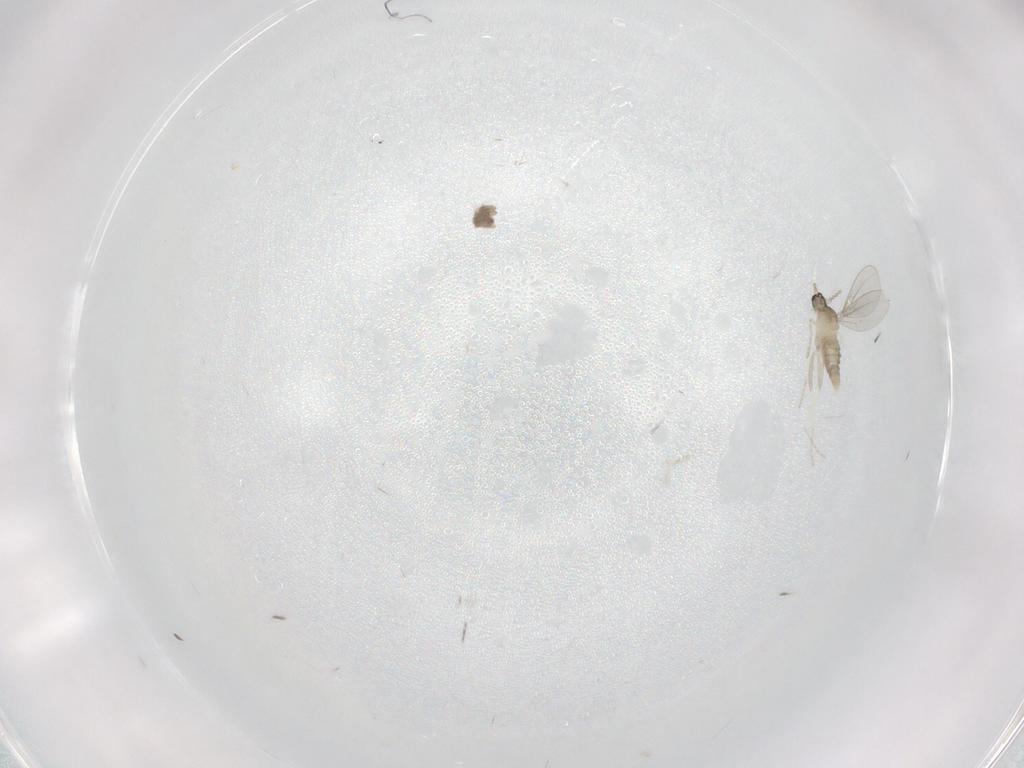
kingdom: Animalia
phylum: Arthropoda
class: Insecta
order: Diptera
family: Cecidomyiidae
